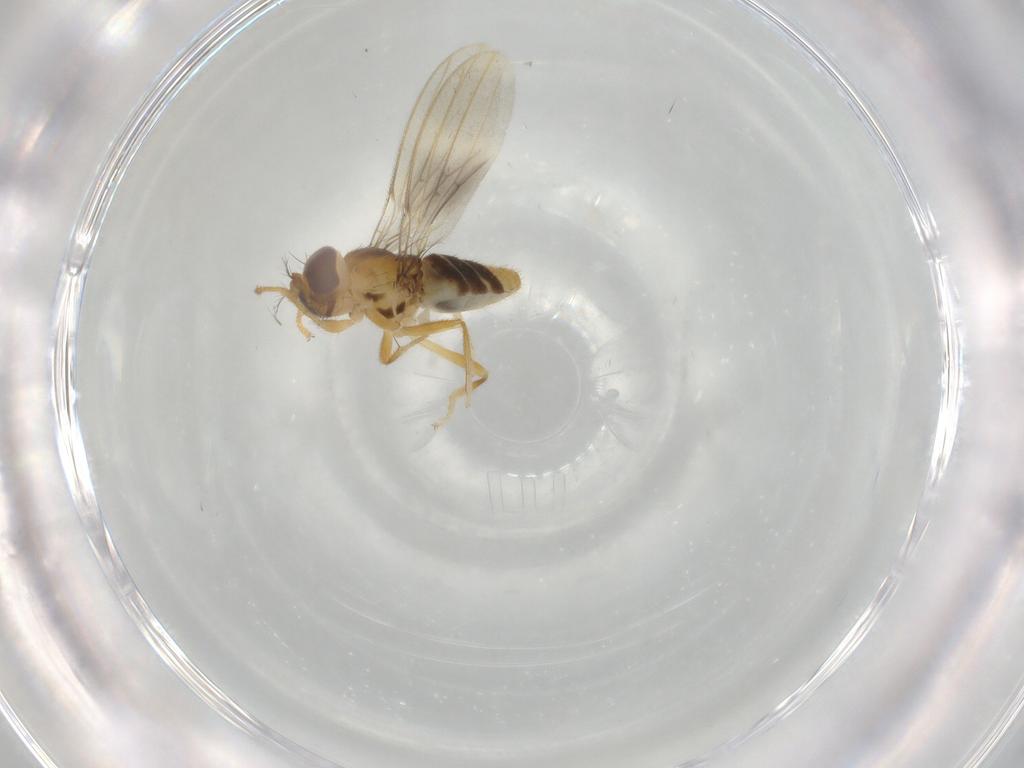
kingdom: Animalia
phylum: Arthropoda
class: Insecta
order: Diptera
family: Periscelididae
